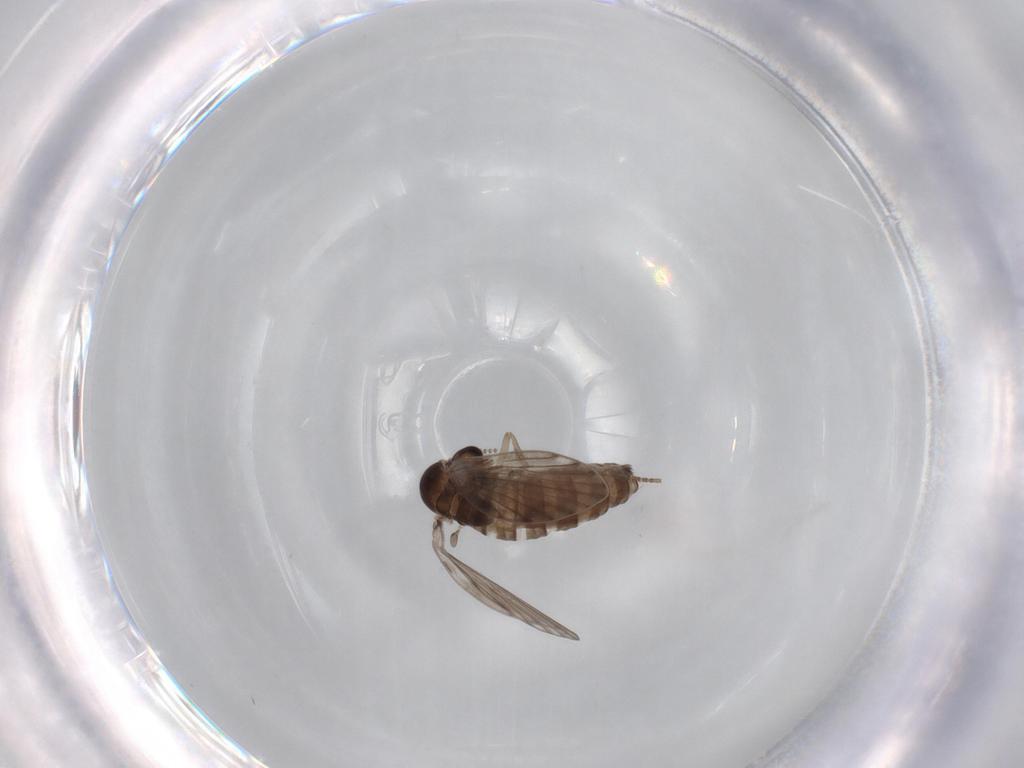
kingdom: Animalia
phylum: Arthropoda
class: Insecta
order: Diptera
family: Psychodidae
